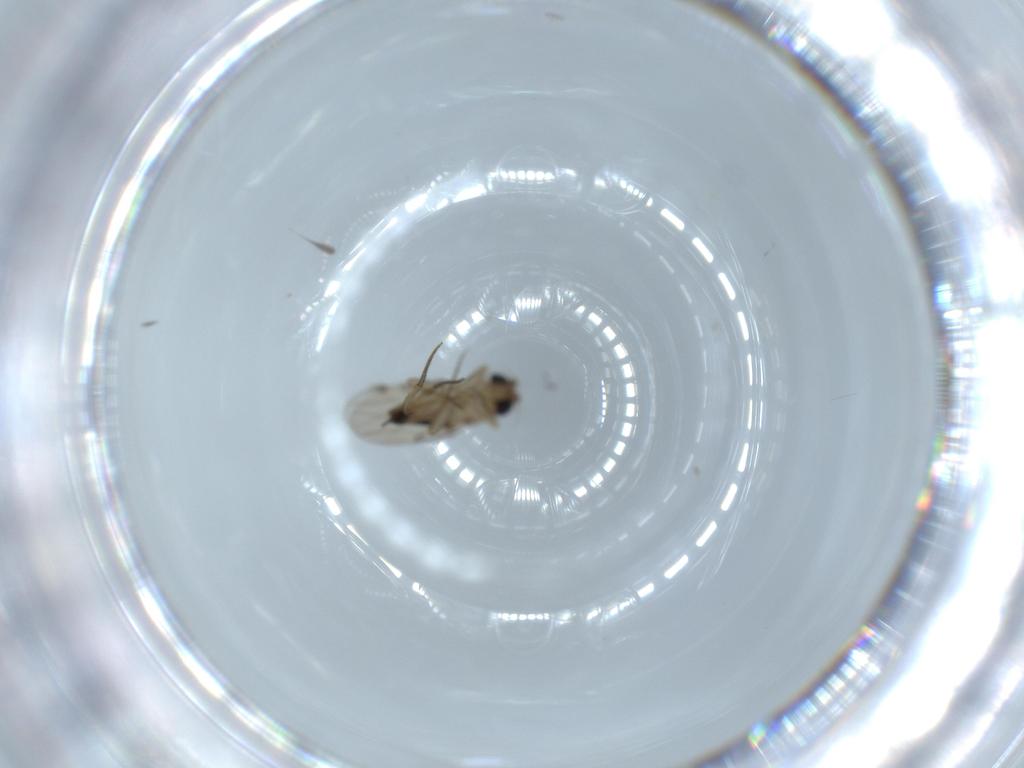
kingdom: Animalia
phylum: Arthropoda
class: Insecta
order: Diptera
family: Phoridae
